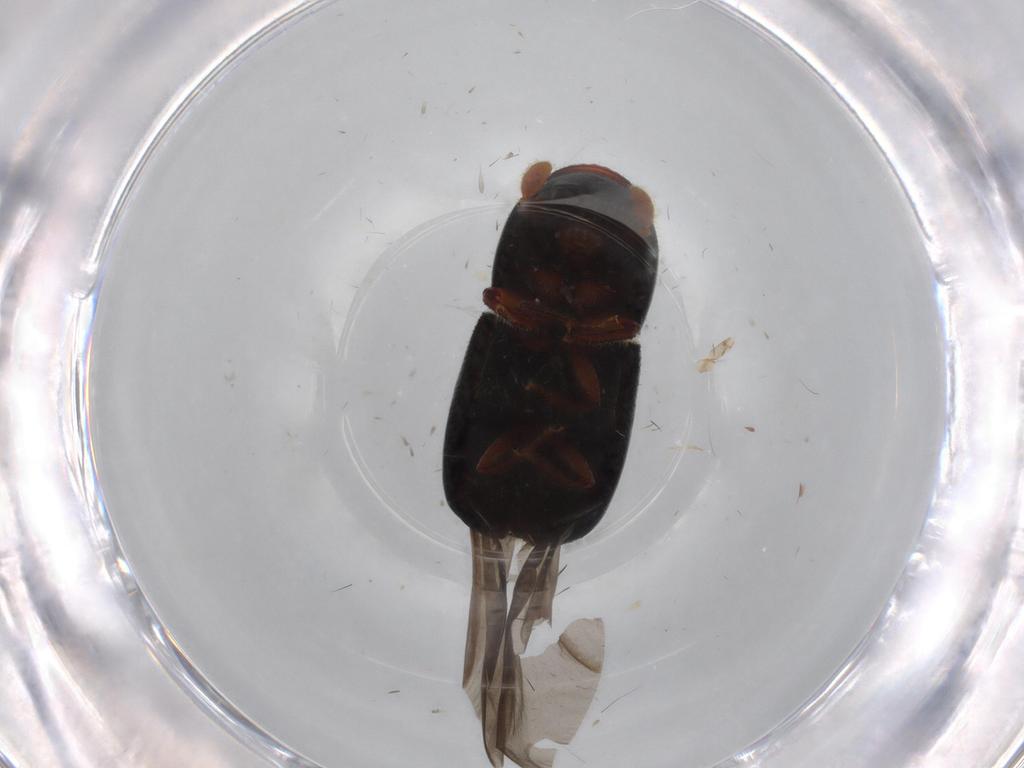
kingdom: Animalia
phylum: Arthropoda
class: Insecta
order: Coleoptera
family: Curculionidae
